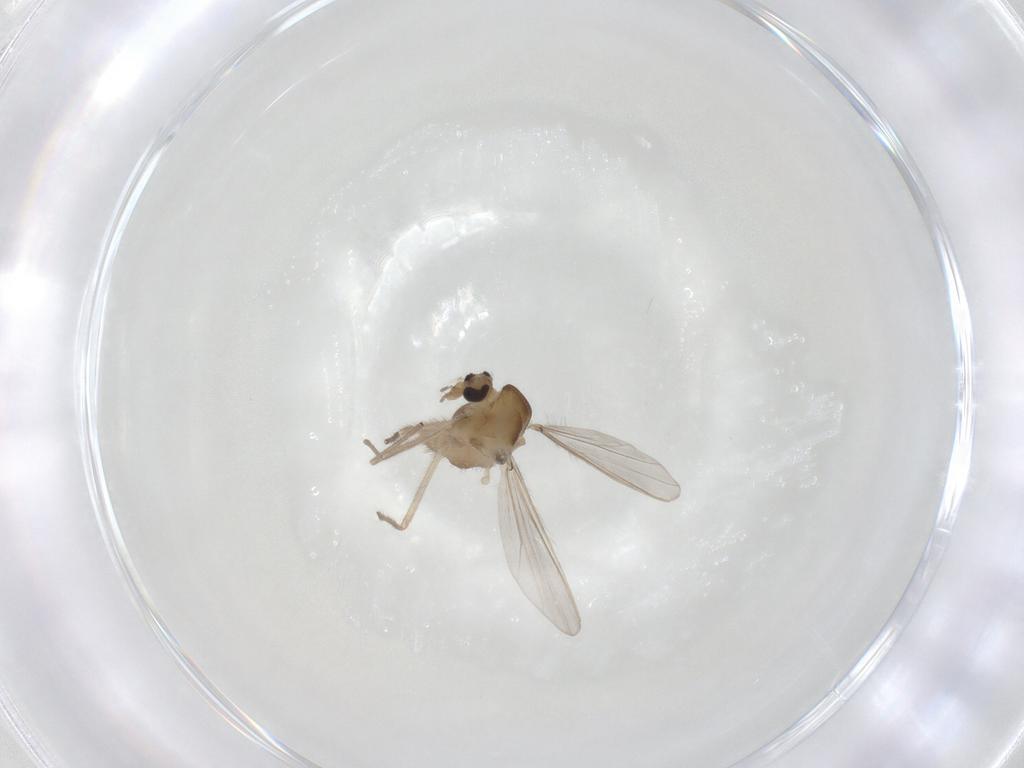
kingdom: Animalia
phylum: Arthropoda
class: Insecta
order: Diptera
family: Chironomidae
